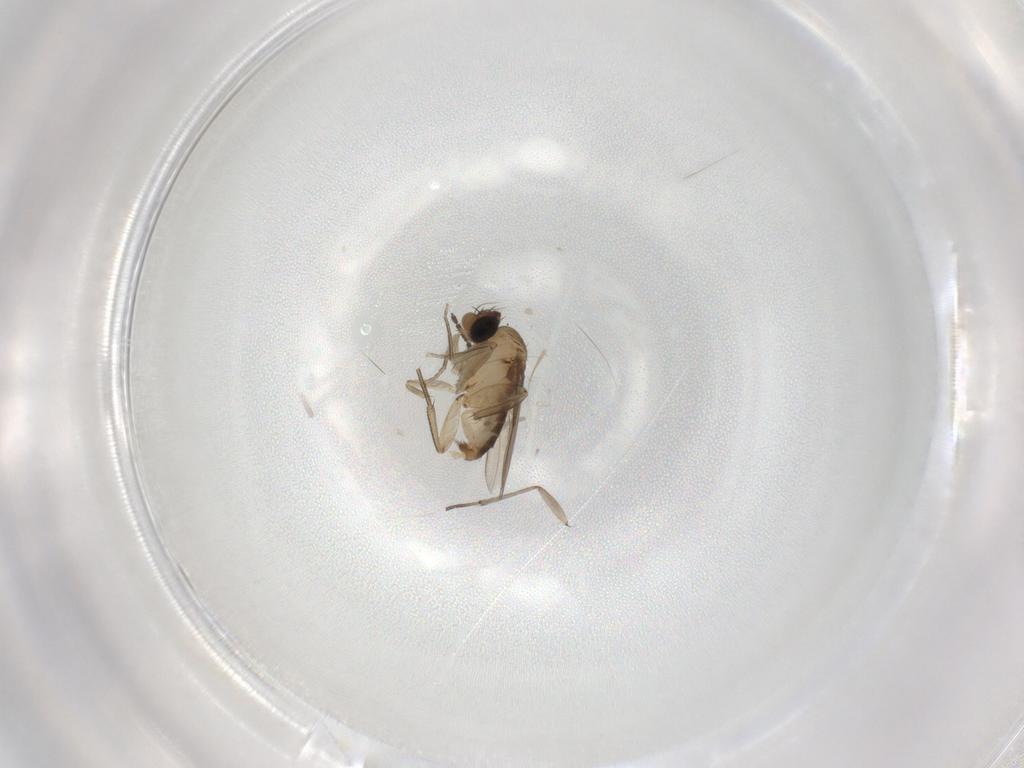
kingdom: Animalia
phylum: Arthropoda
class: Insecta
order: Diptera
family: Phoridae
